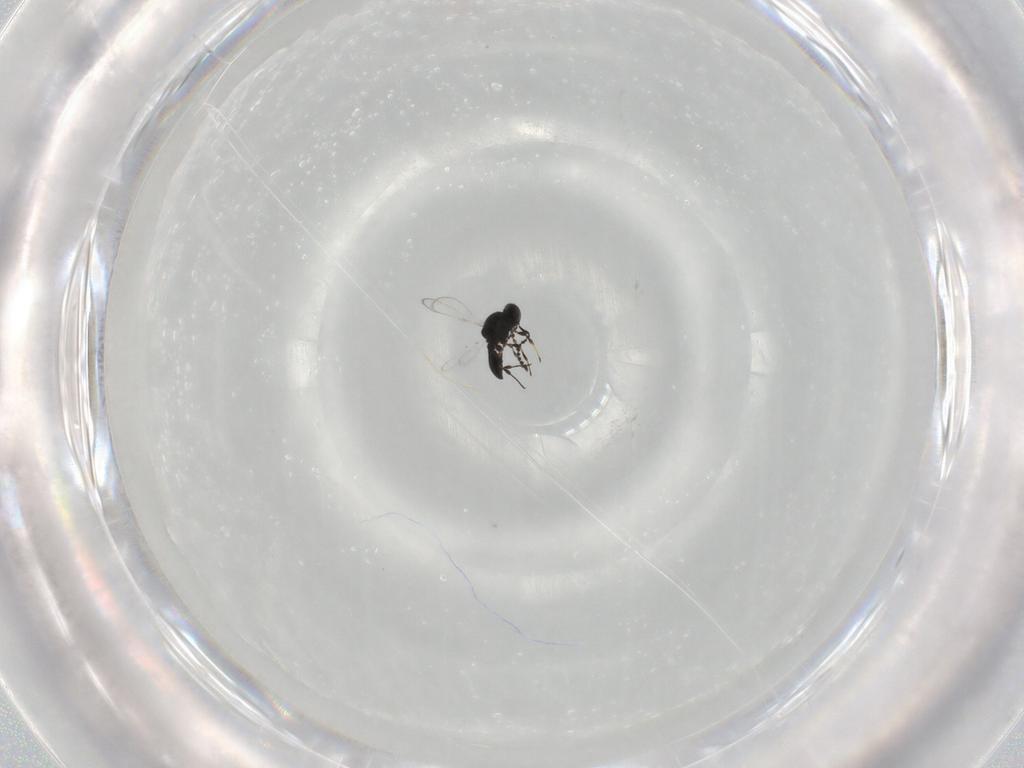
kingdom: Animalia
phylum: Arthropoda
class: Insecta
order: Hymenoptera
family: Platygastridae
